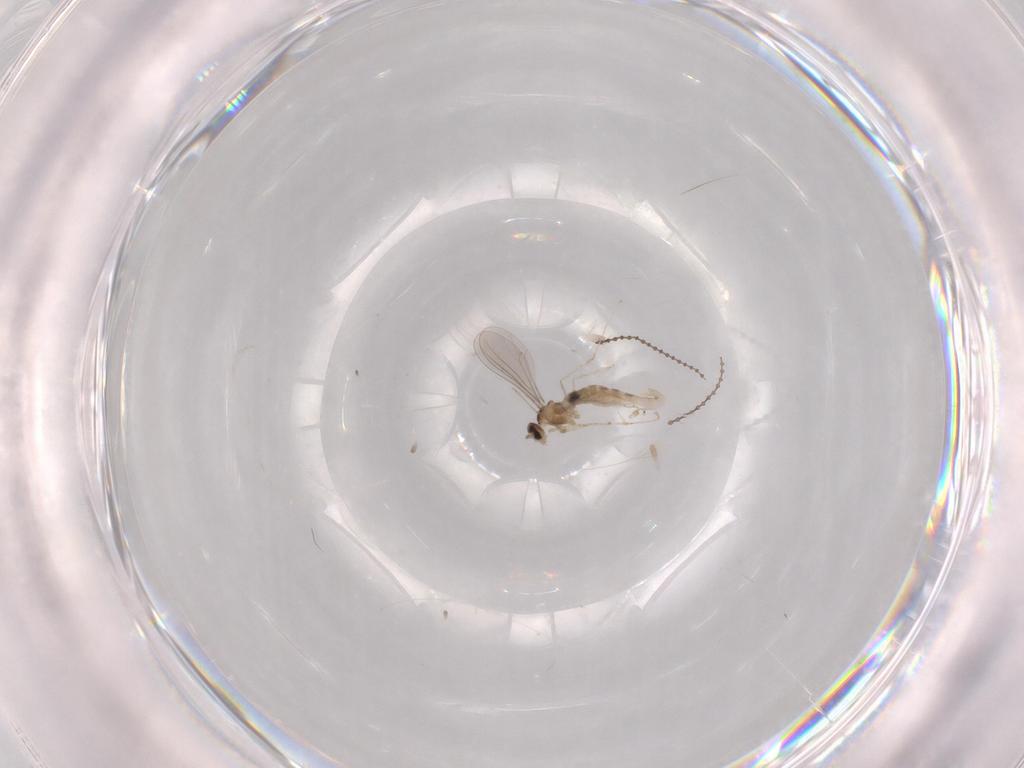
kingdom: Animalia
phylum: Arthropoda
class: Insecta
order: Diptera
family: Cecidomyiidae
